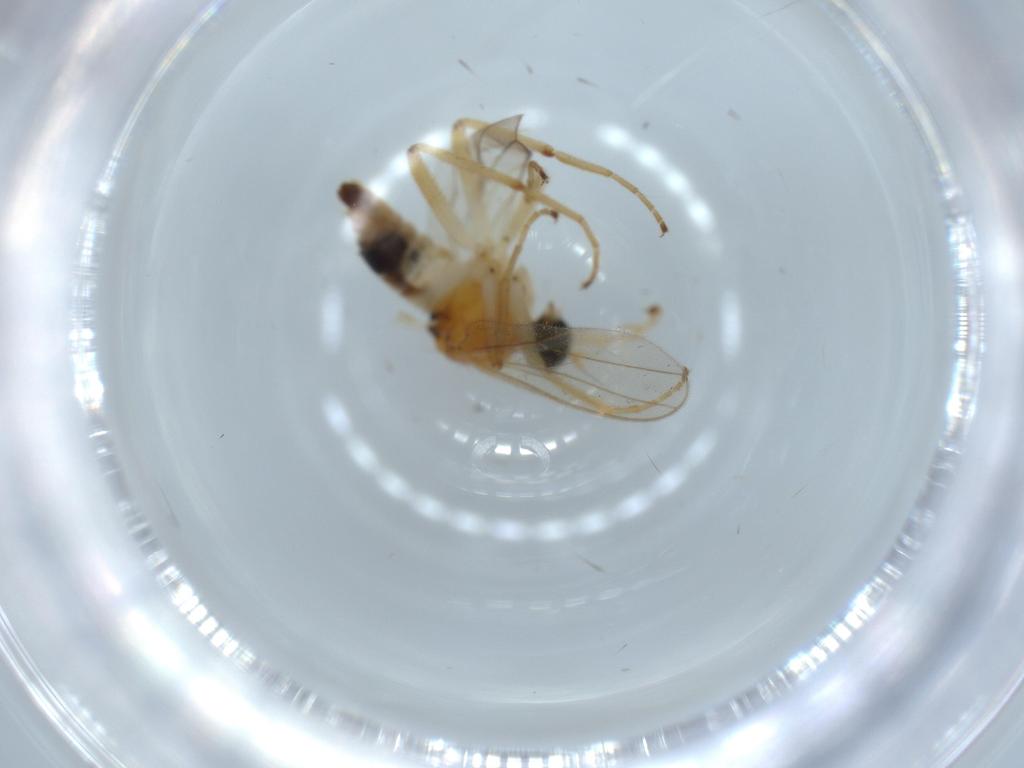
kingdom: Animalia
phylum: Arthropoda
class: Insecta
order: Diptera
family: Hybotidae
